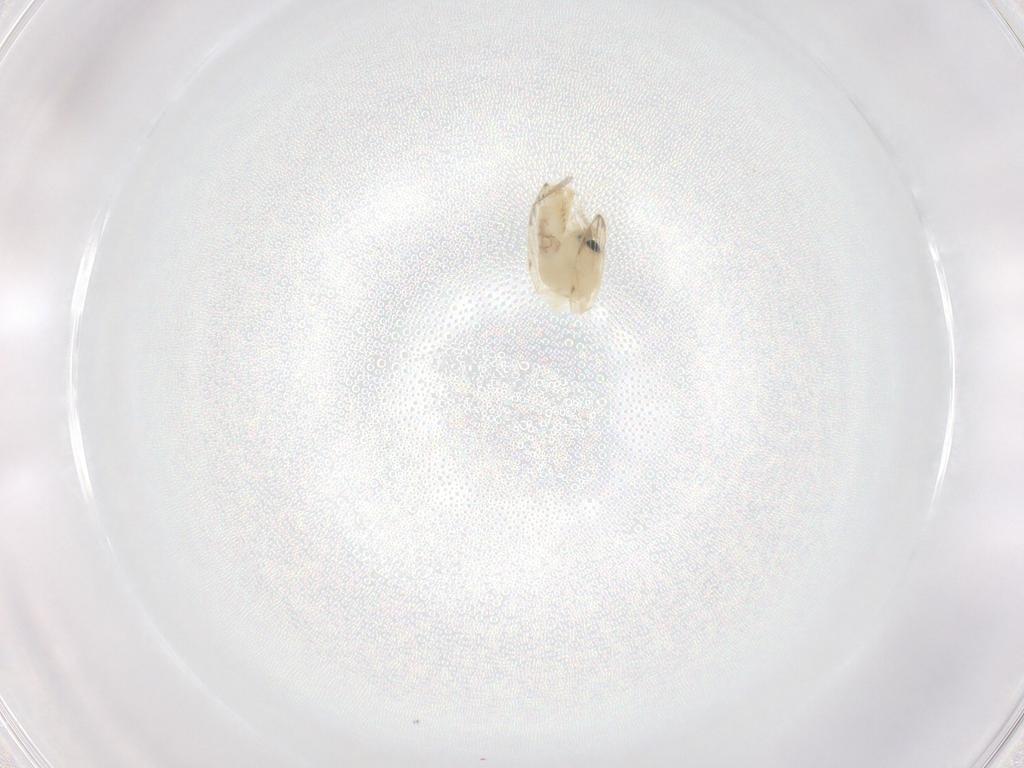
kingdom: Animalia
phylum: Arthropoda
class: Insecta
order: Diptera
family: Psychodidae
